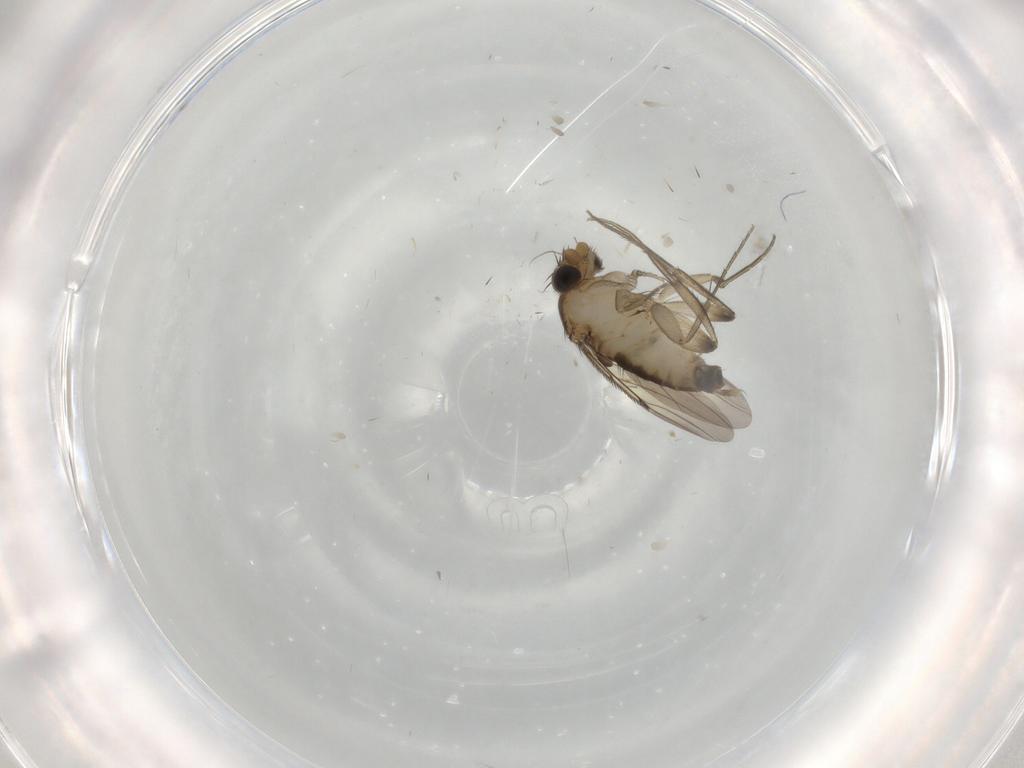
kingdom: Animalia
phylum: Arthropoda
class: Insecta
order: Diptera
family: Phoridae
